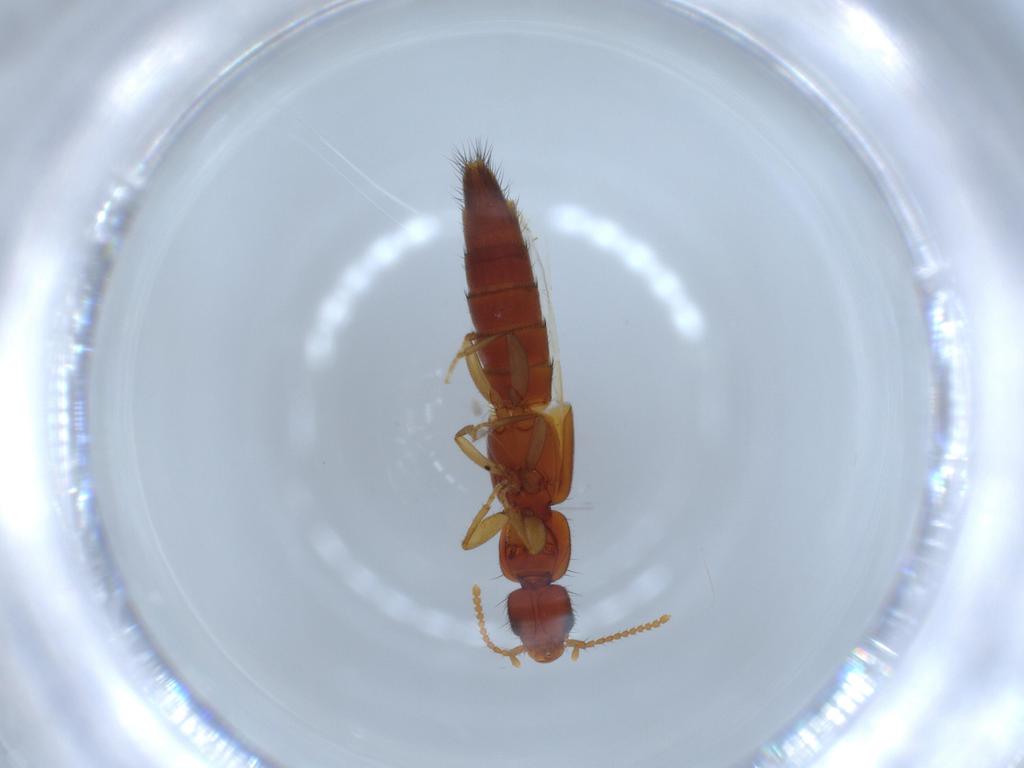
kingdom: Animalia
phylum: Arthropoda
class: Insecta
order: Coleoptera
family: Staphylinidae
